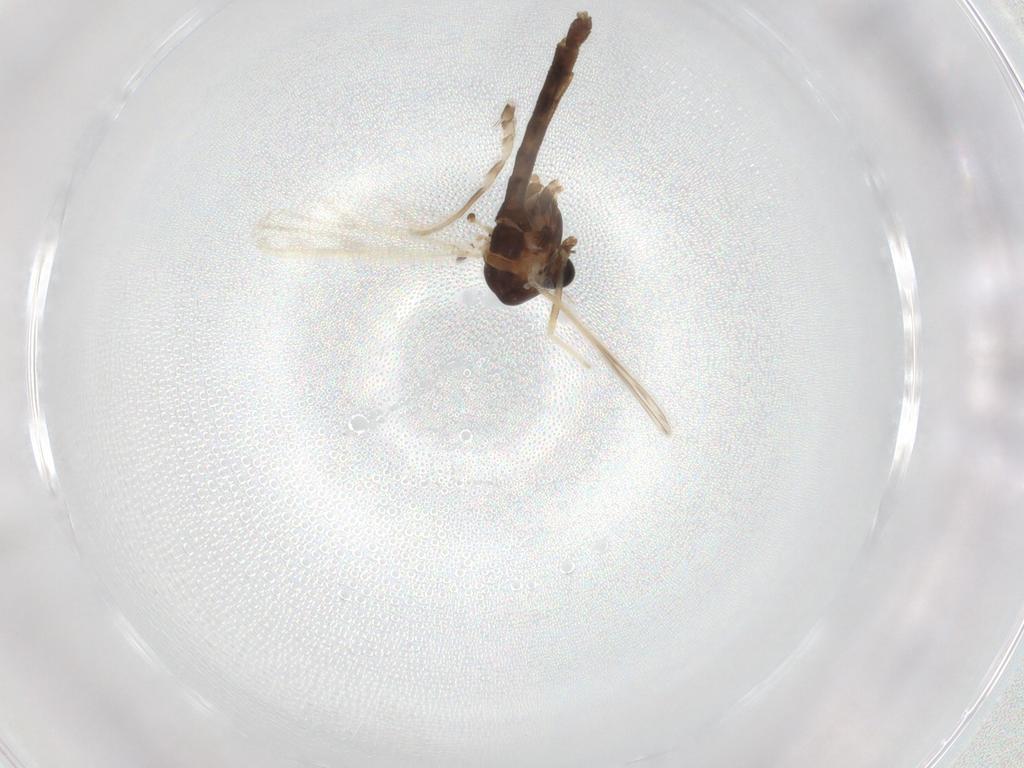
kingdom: Animalia
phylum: Arthropoda
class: Insecta
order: Diptera
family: Chironomidae
